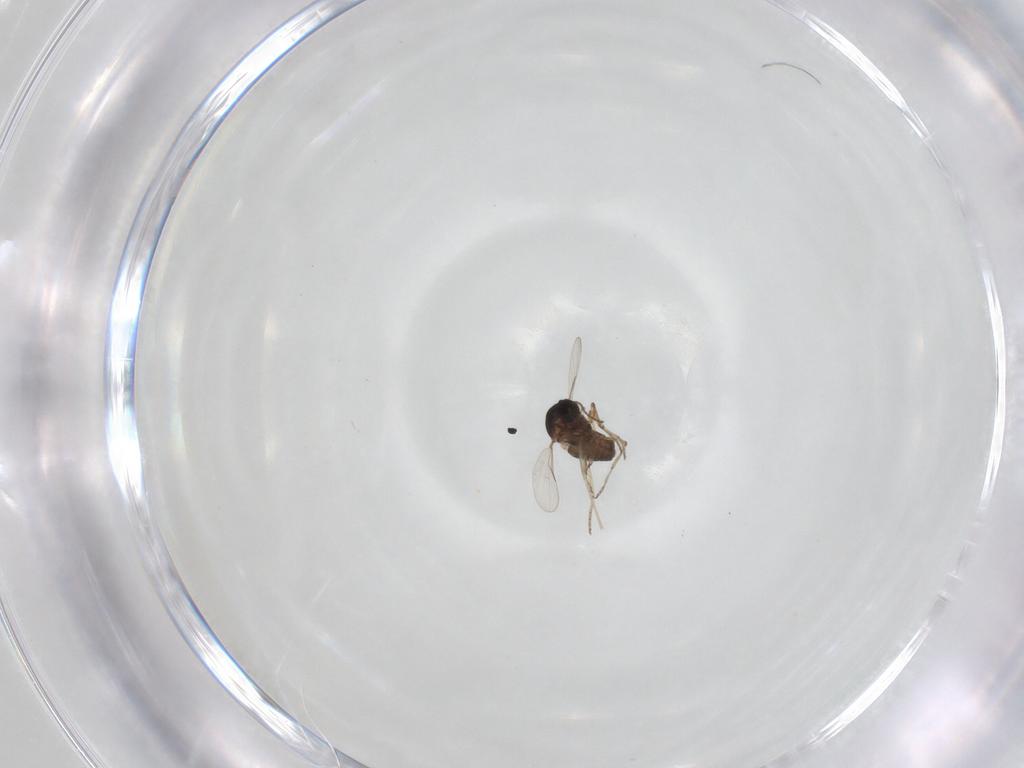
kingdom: Animalia
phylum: Arthropoda
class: Insecta
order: Diptera
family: Ceratopogonidae
